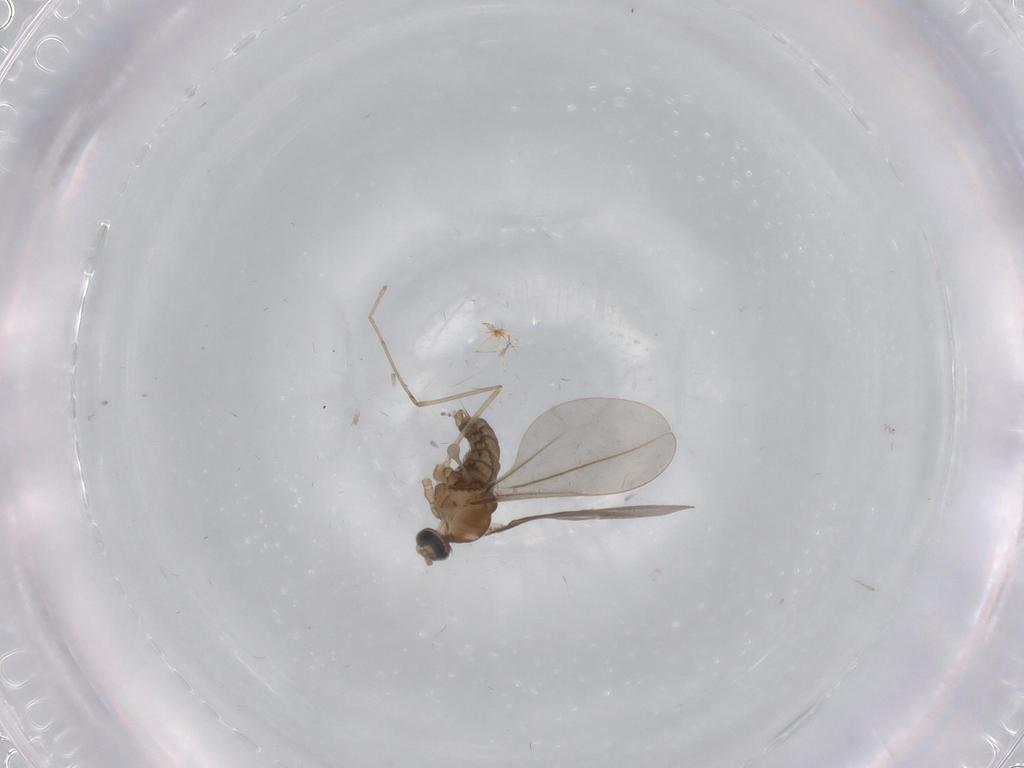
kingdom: Animalia
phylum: Arthropoda
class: Insecta
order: Diptera
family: Cecidomyiidae
